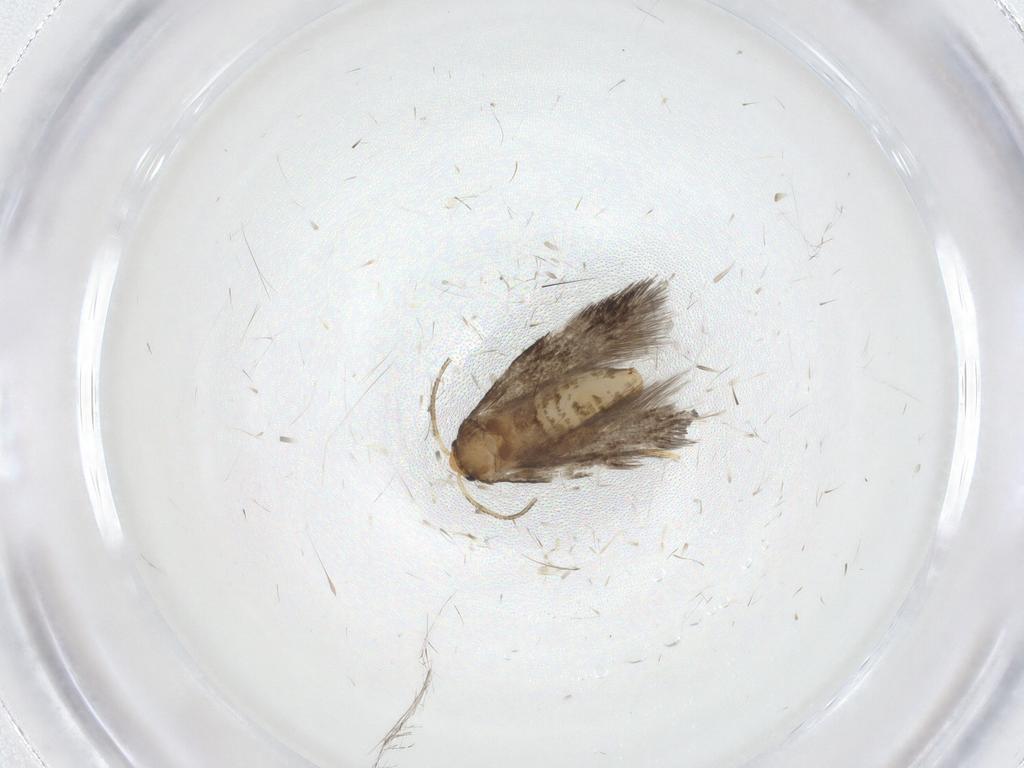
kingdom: Animalia
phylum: Arthropoda
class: Insecta
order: Lepidoptera
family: Nepticulidae
